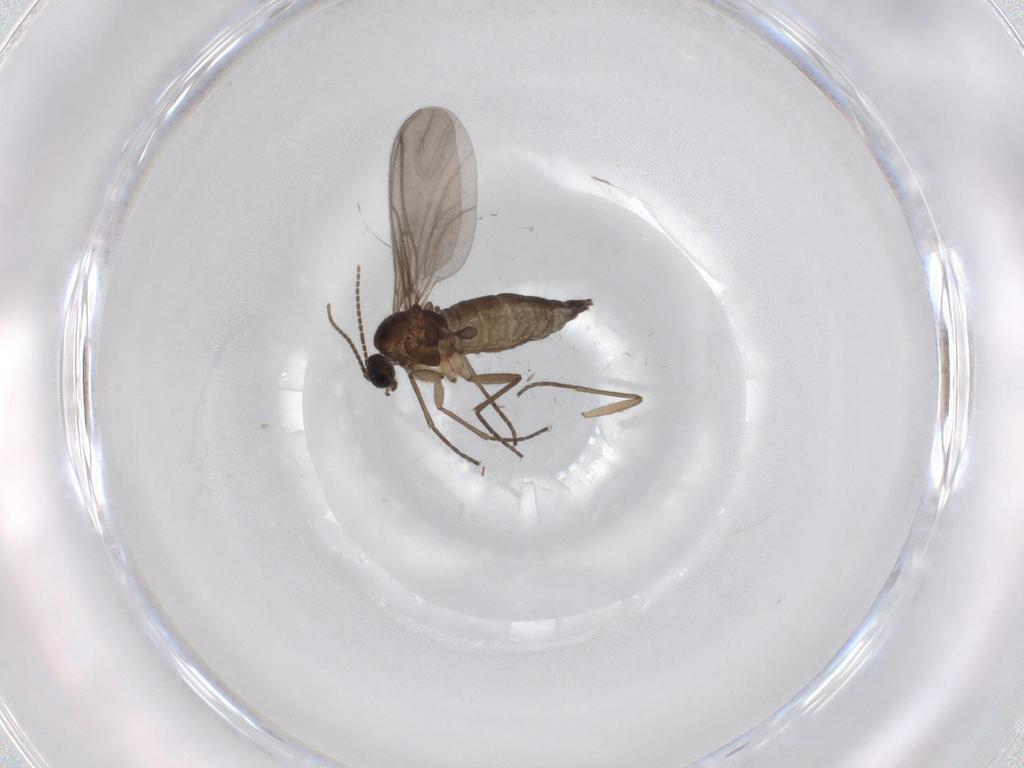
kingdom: Animalia
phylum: Arthropoda
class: Insecta
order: Diptera
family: Sciaridae
